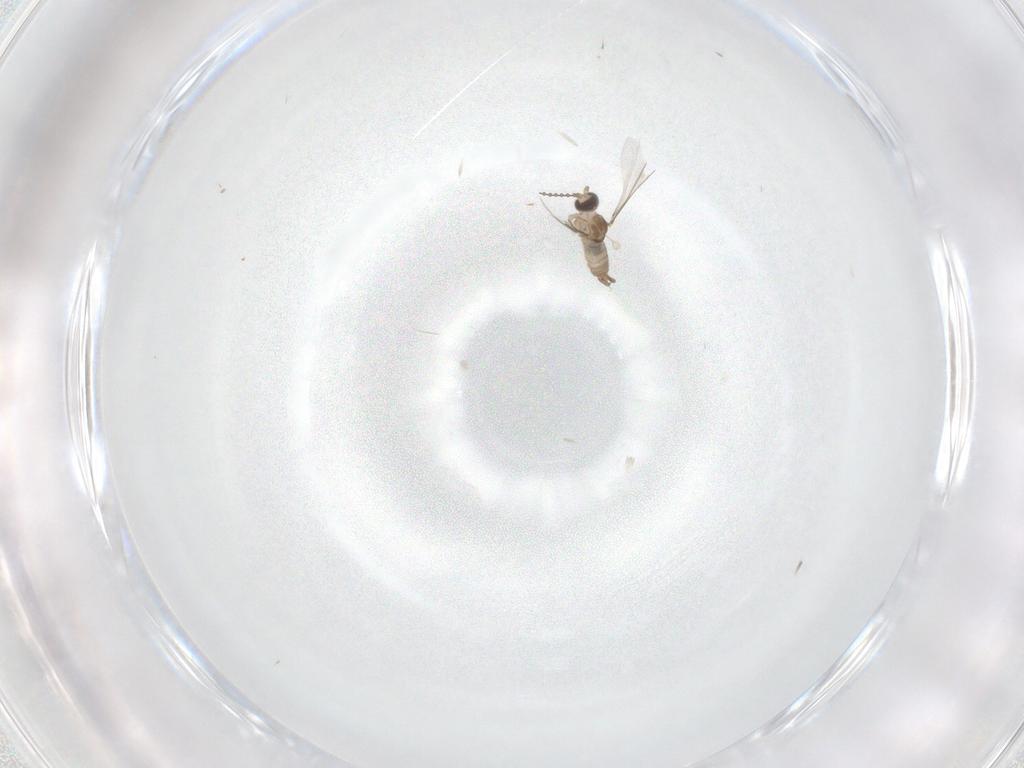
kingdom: Animalia
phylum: Arthropoda
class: Insecta
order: Diptera
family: Cecidomyiidae
